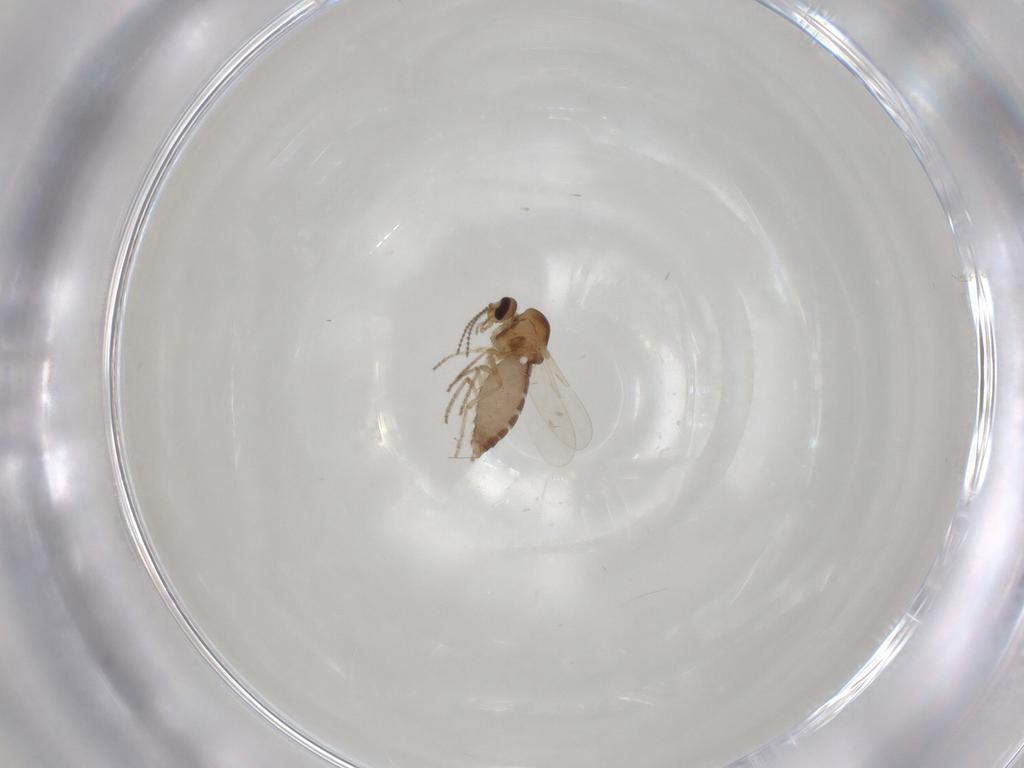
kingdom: Animalia
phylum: Arthropoda
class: Insecta
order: Diptera
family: Ceratopogonidae
